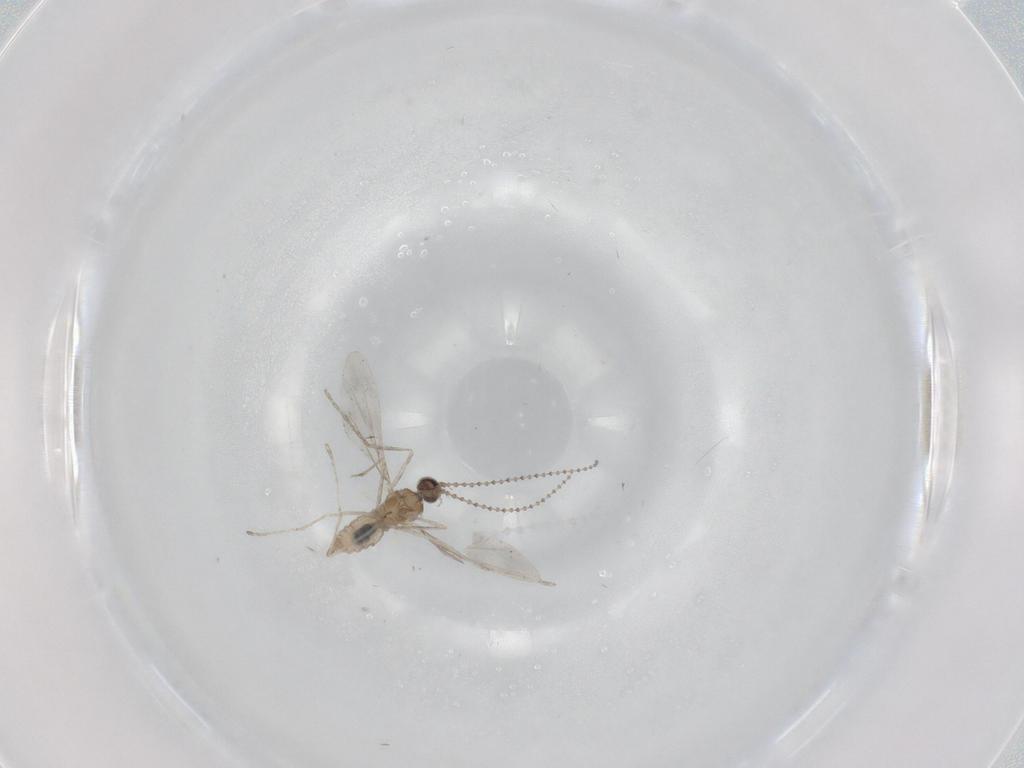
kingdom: Animalia
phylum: Arthropoda
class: Insecta
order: Diptera
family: Cecidomyiidae
